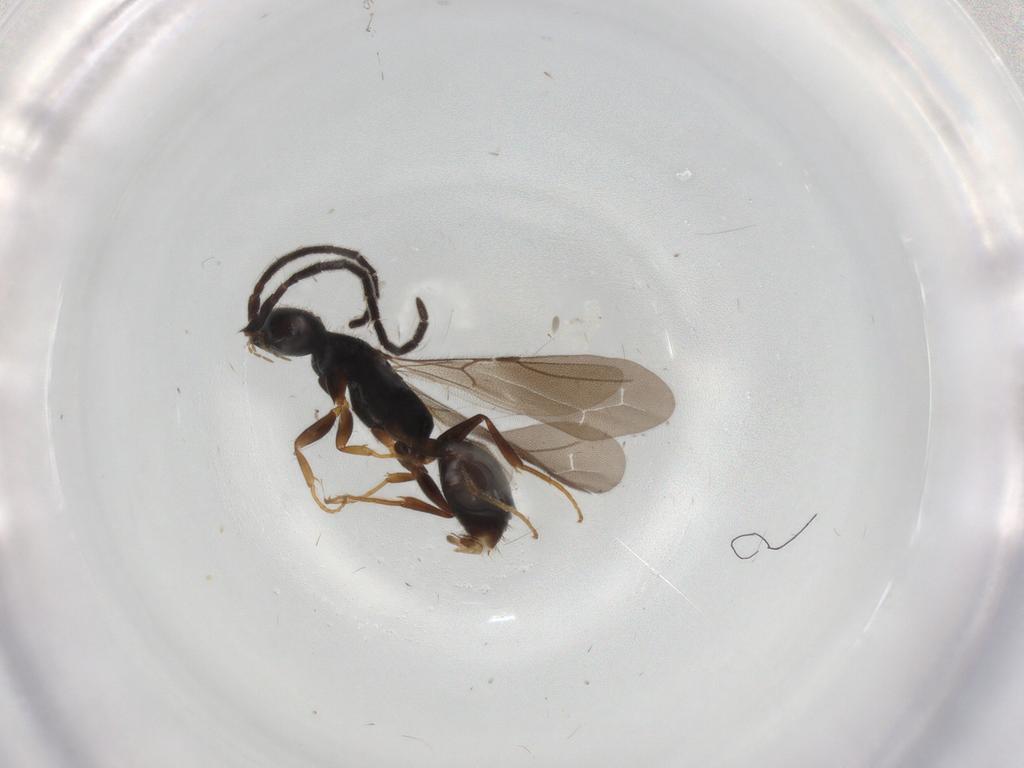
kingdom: Animalia
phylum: Arthropoda
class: Insecta
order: Hymenoptera
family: Bethylidae
